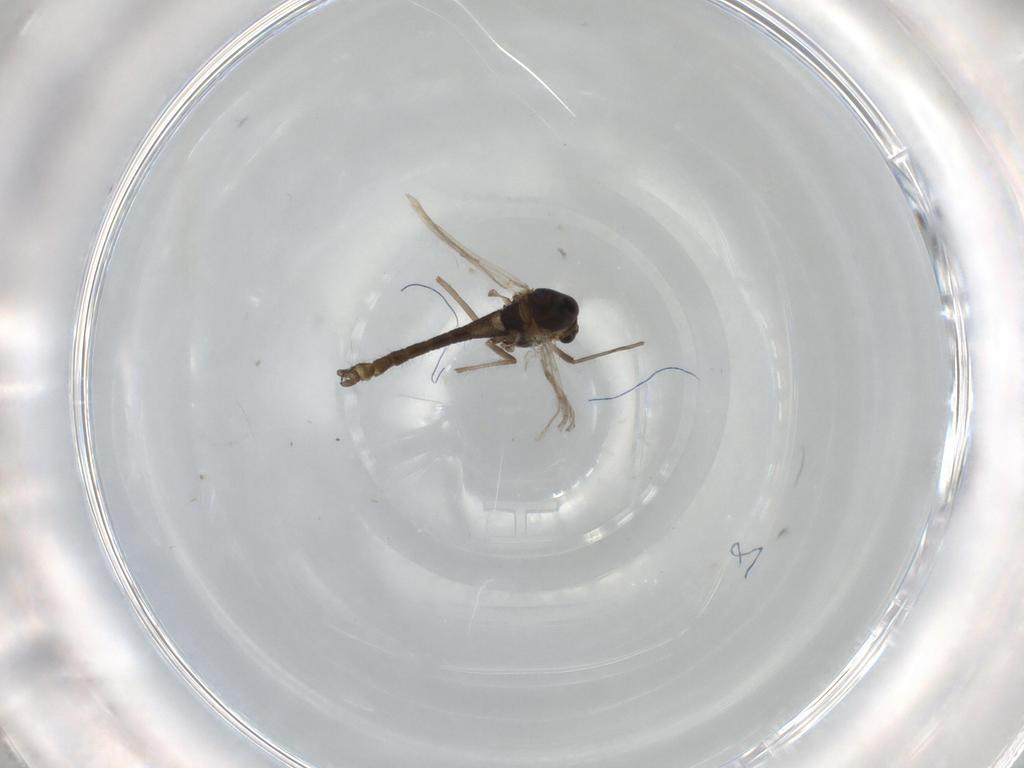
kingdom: Animalia
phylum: Arthropoda
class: Insecta
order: Diptera
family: Chironomidae
